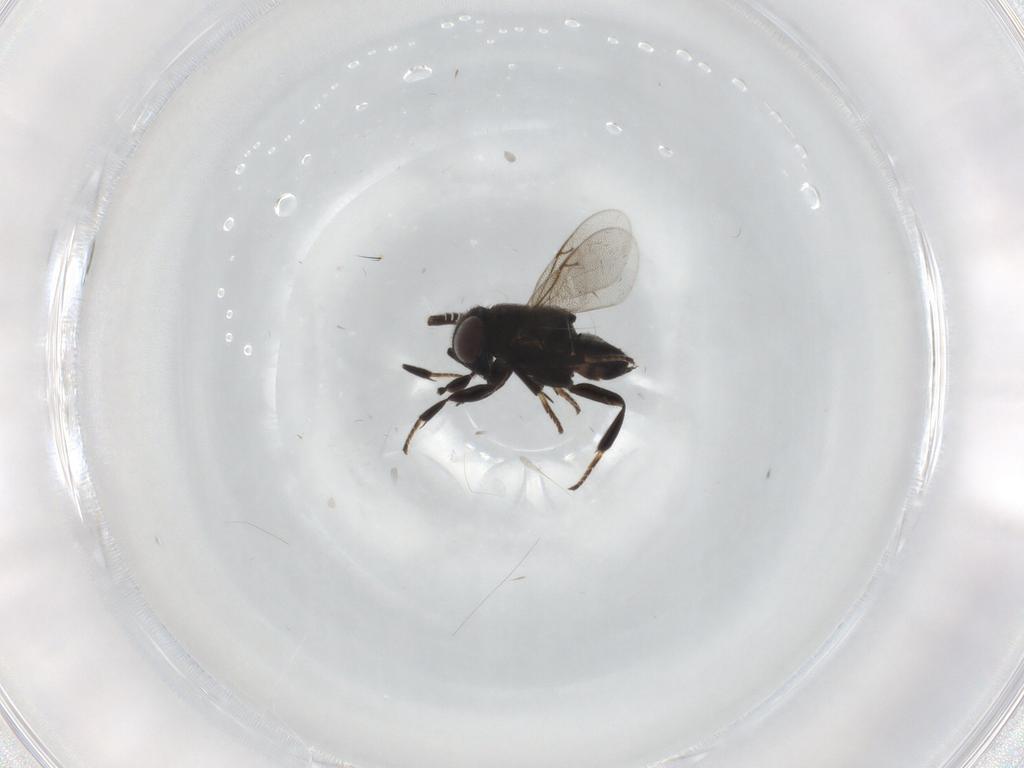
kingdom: Animalia
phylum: Arthropoda
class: Insecta
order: Hymenoptera
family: Encyrtidae
